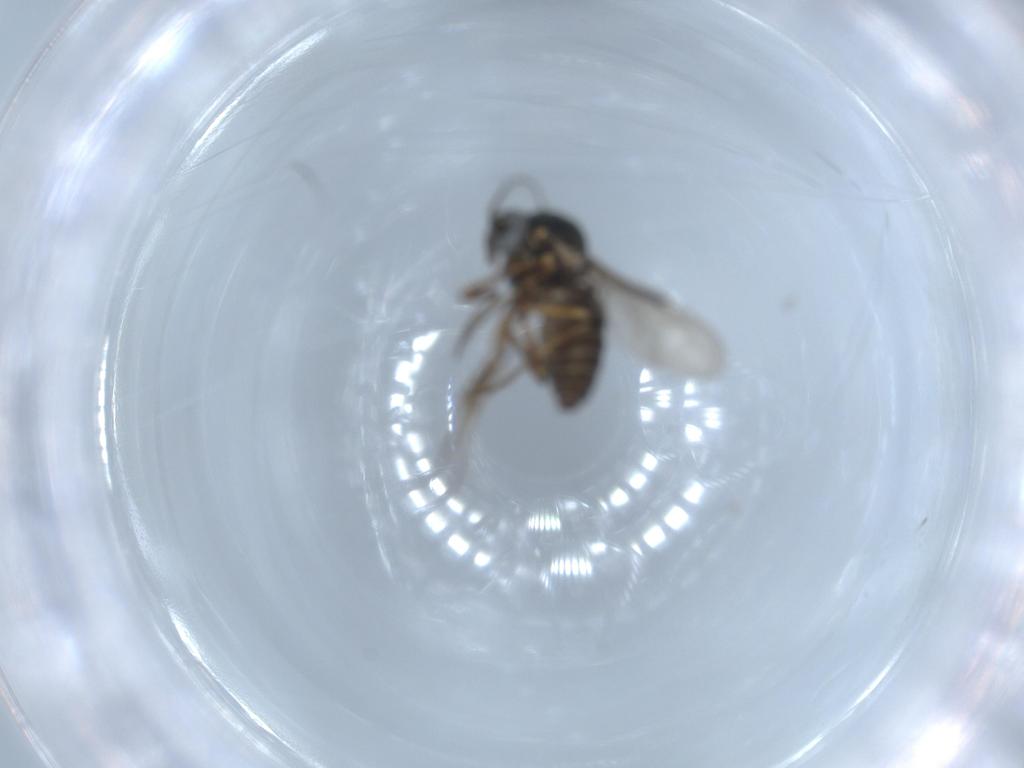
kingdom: Animalia
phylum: Arthropoda
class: Insecta
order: Diptera
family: Ceratopogonidae
